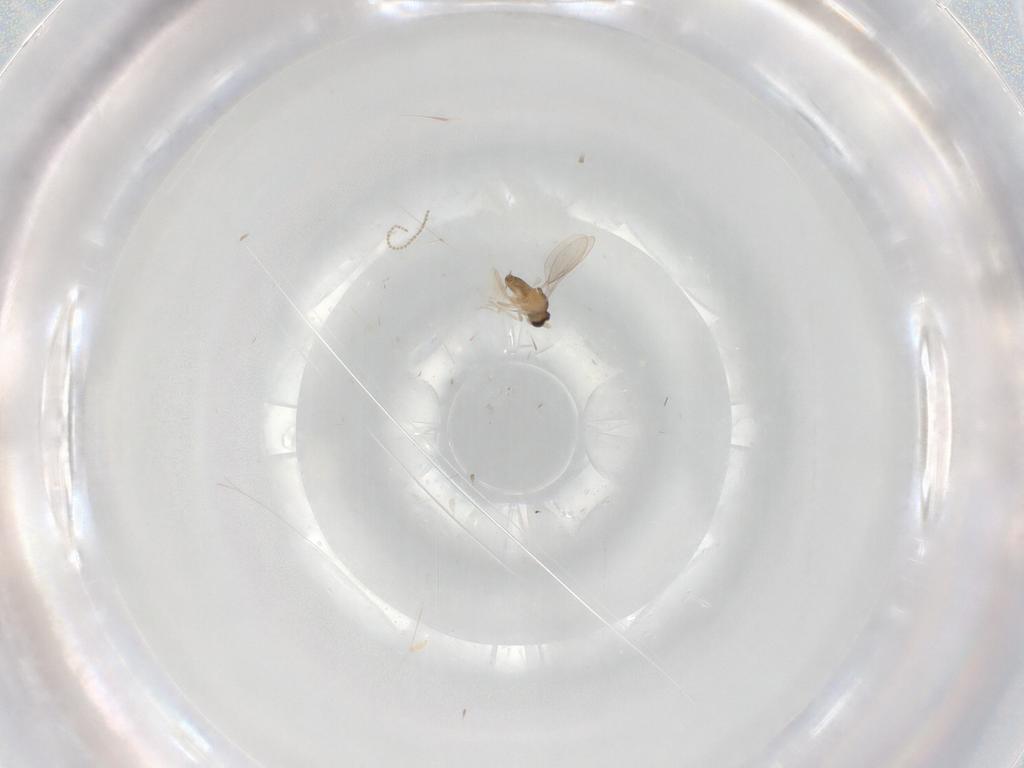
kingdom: Animalia
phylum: Arthropoda
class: Insecta
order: Diptera
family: Cecidomyiidae
